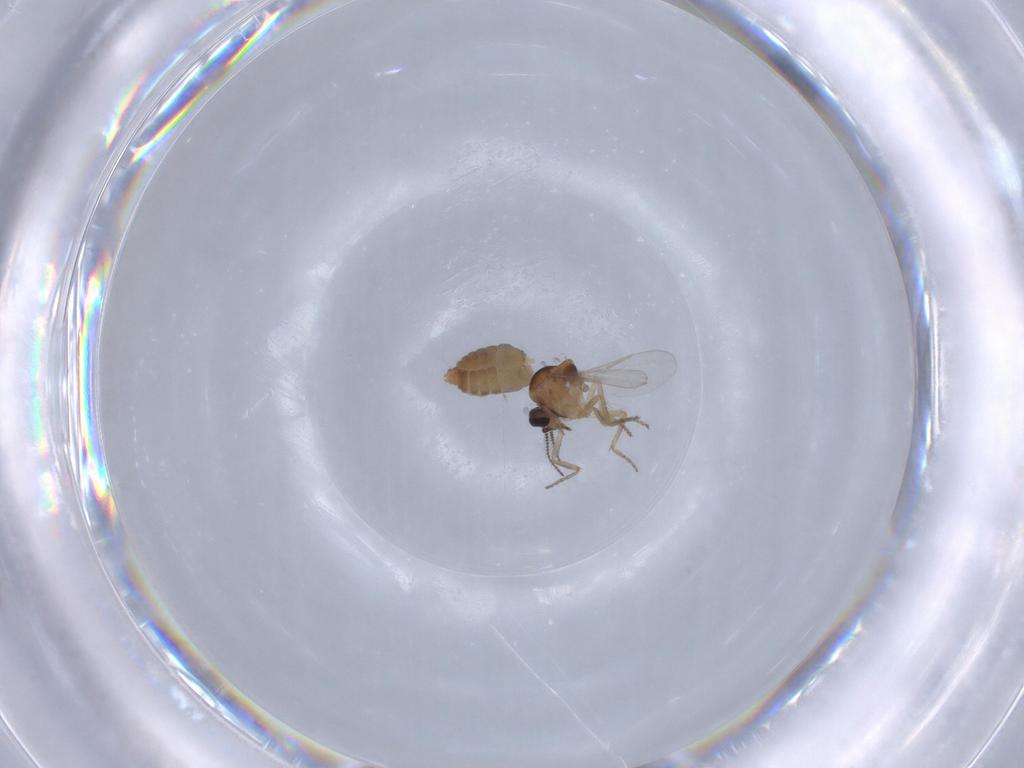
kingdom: Animalia
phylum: Arthropoda
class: Insecta
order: Diptera
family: Ceratopogonidae
